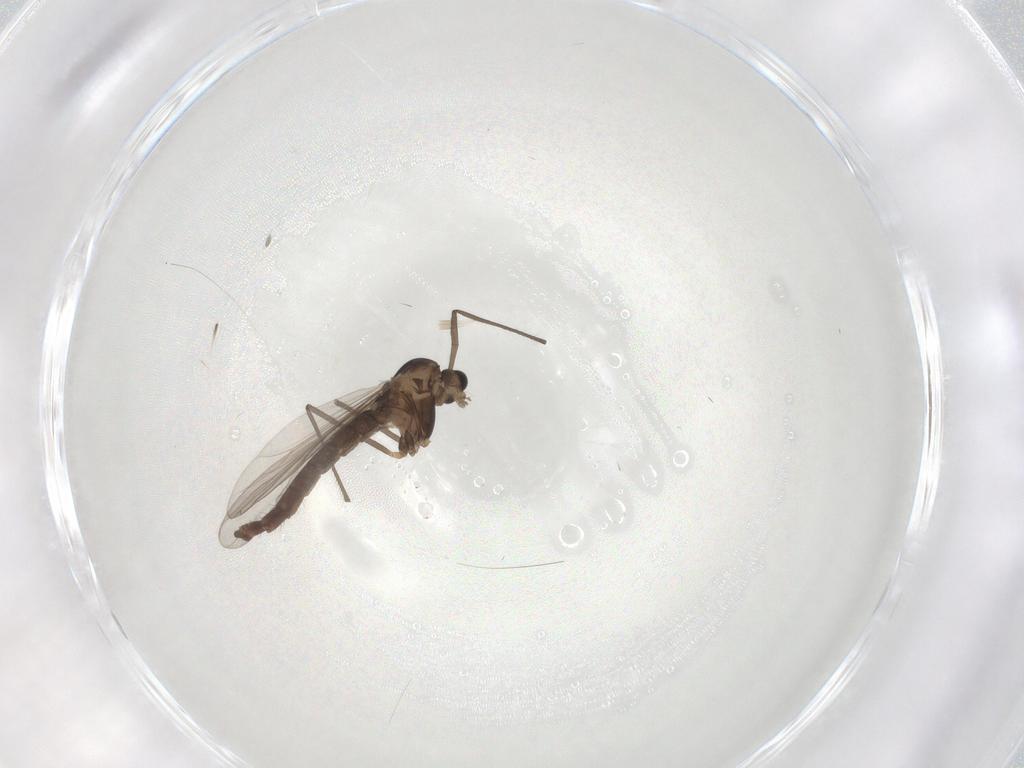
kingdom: Animalia
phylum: Arthropoda
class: Insecta
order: Diptera
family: Chironomidae
